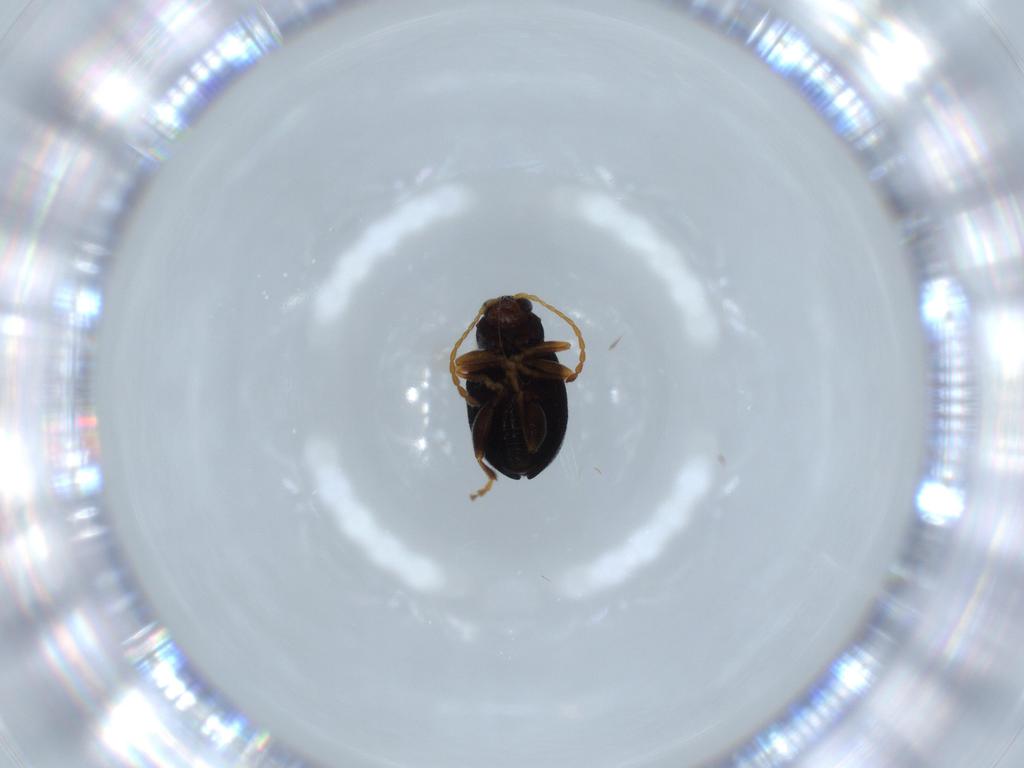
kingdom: Animalia
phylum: Arthropoda
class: Insecta
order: Coleoptera
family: Chrysomelidae
